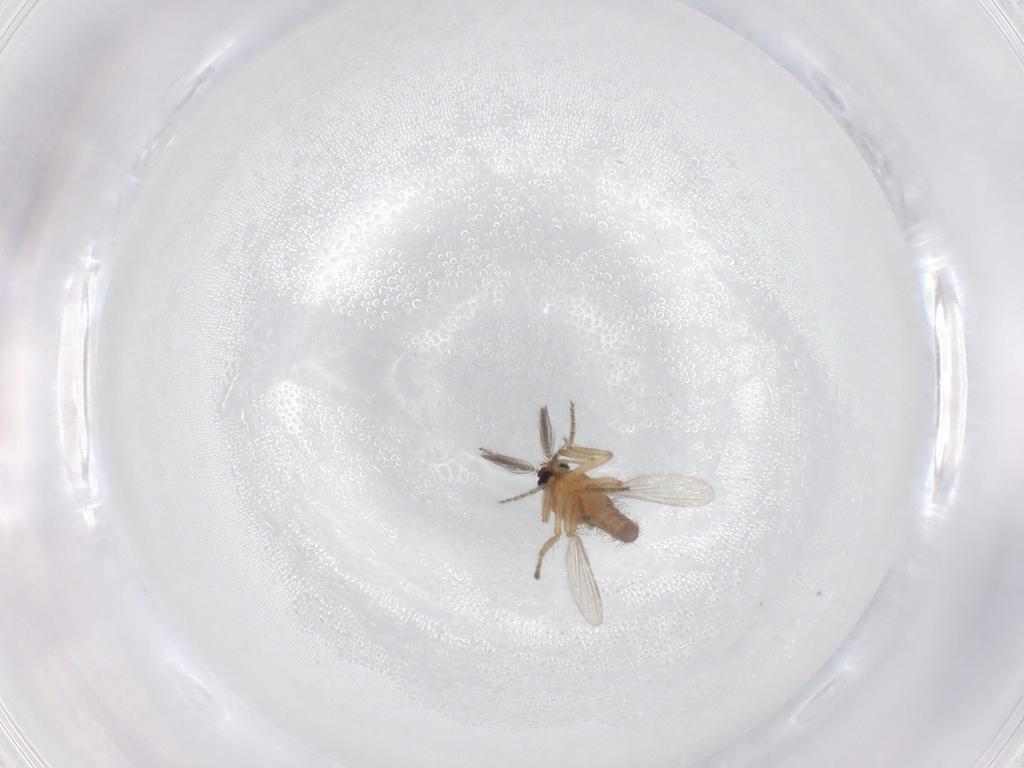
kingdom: Animalia
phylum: Arthropoda
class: Insecta
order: Diptera
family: Ceratopogonidae
